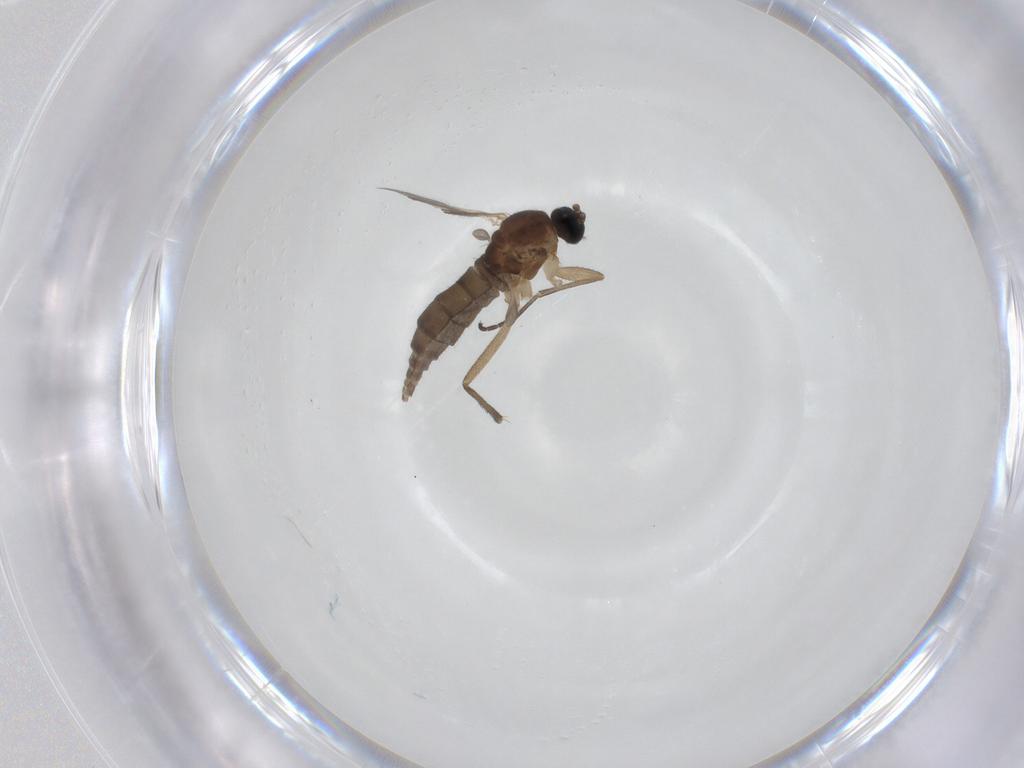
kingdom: Animalia
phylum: Arthropoda
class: Insecta
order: Diptera
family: Sciaridae
